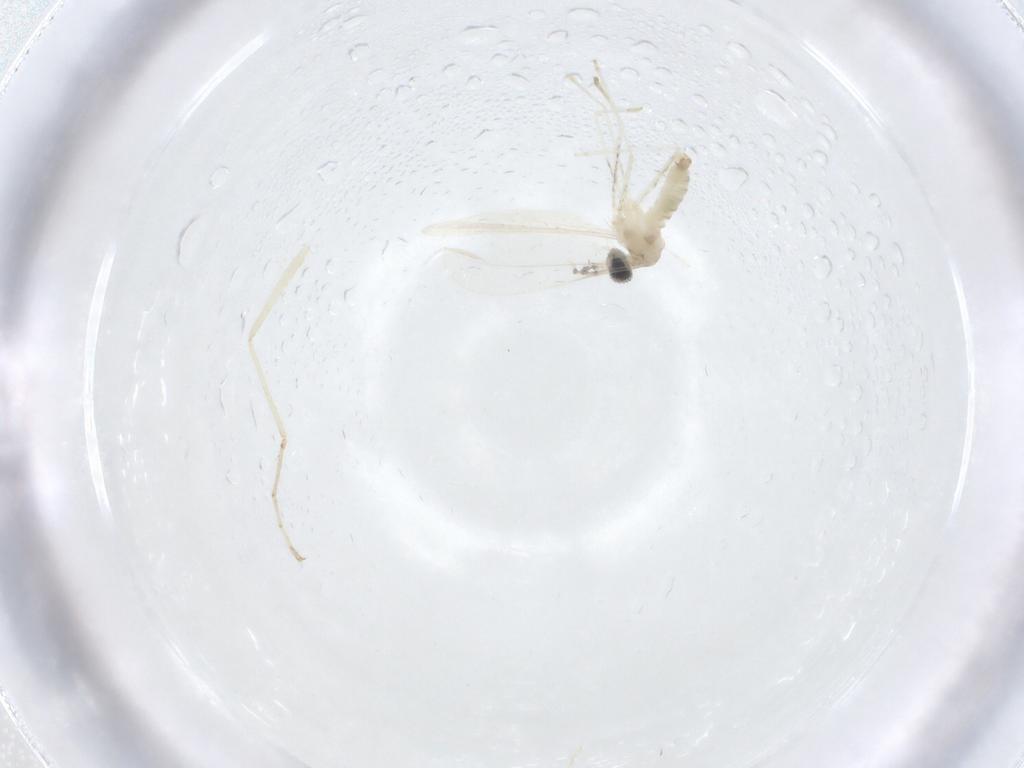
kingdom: Animalia
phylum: Arthropoda
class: Insecta
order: Diptera
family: Cecidomyiidae
